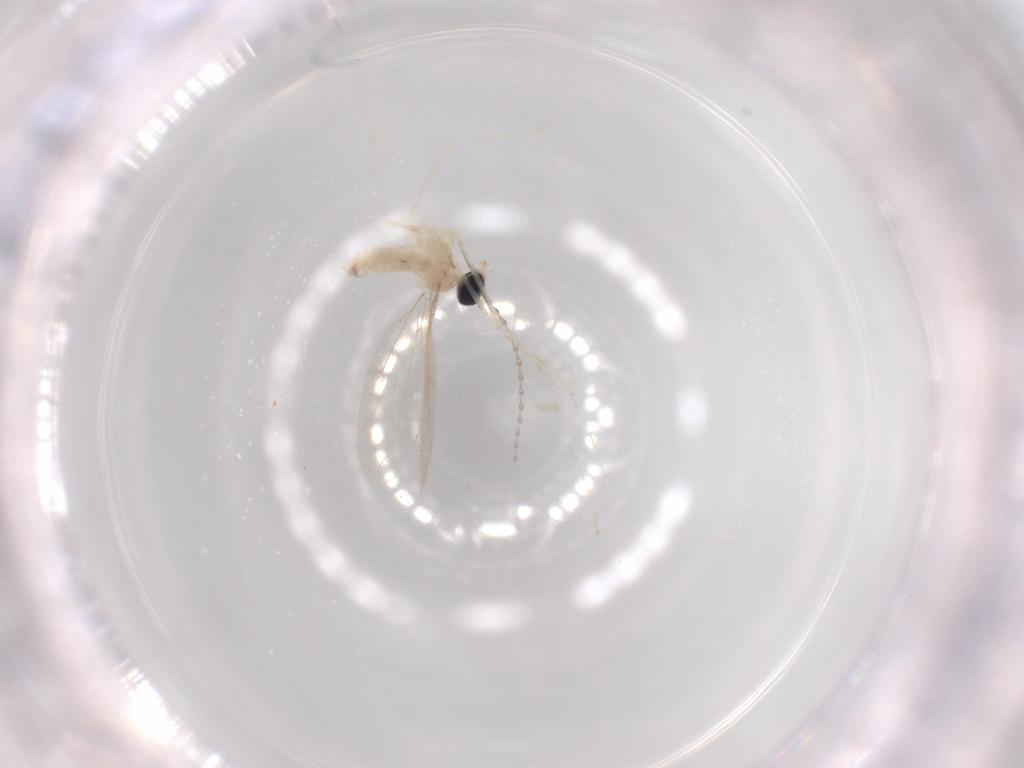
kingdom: Animalia
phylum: Arthropoda
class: Insecta
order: Diptera
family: Cecidomyiidae
